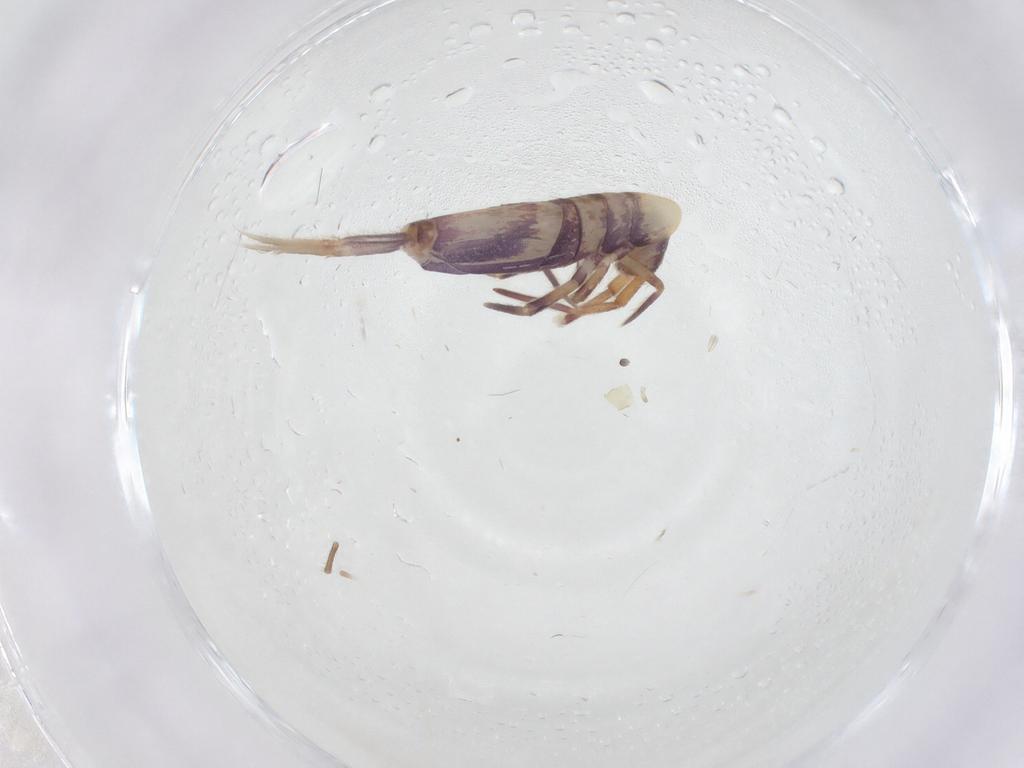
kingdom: Animalia
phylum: Arthropoda
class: Collembola
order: Entomobryomorpha
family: Entomobryidae
